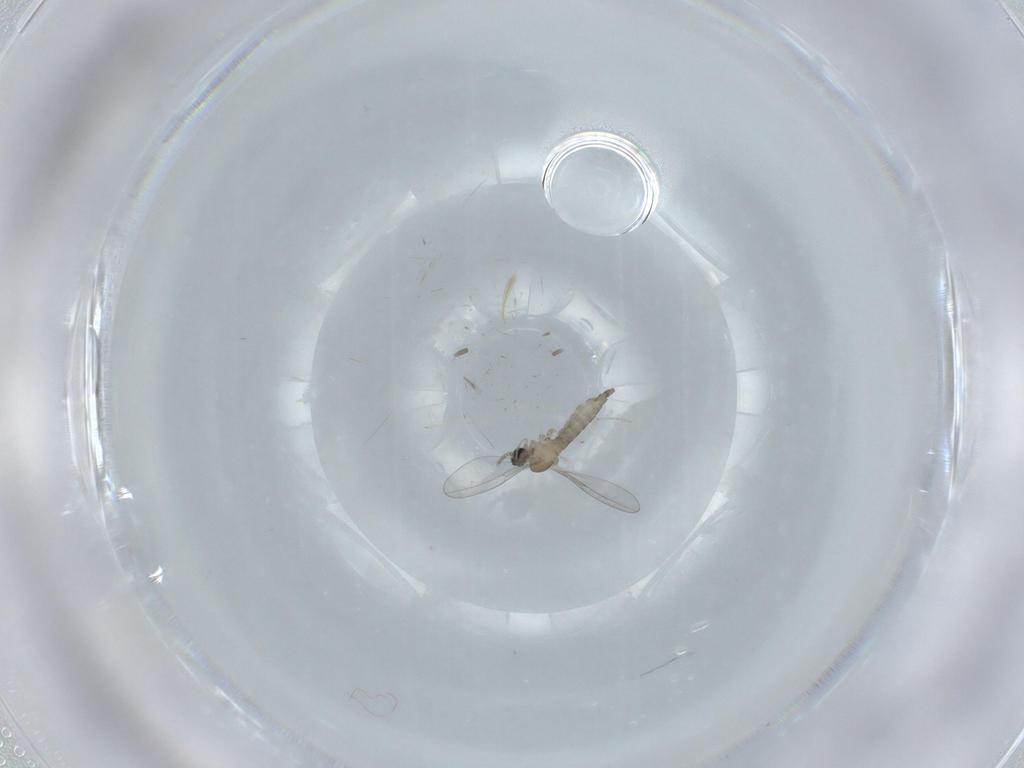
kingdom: Animalia
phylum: Arthropoda
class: Insecta
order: Diptera
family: Cecidomyiidae
